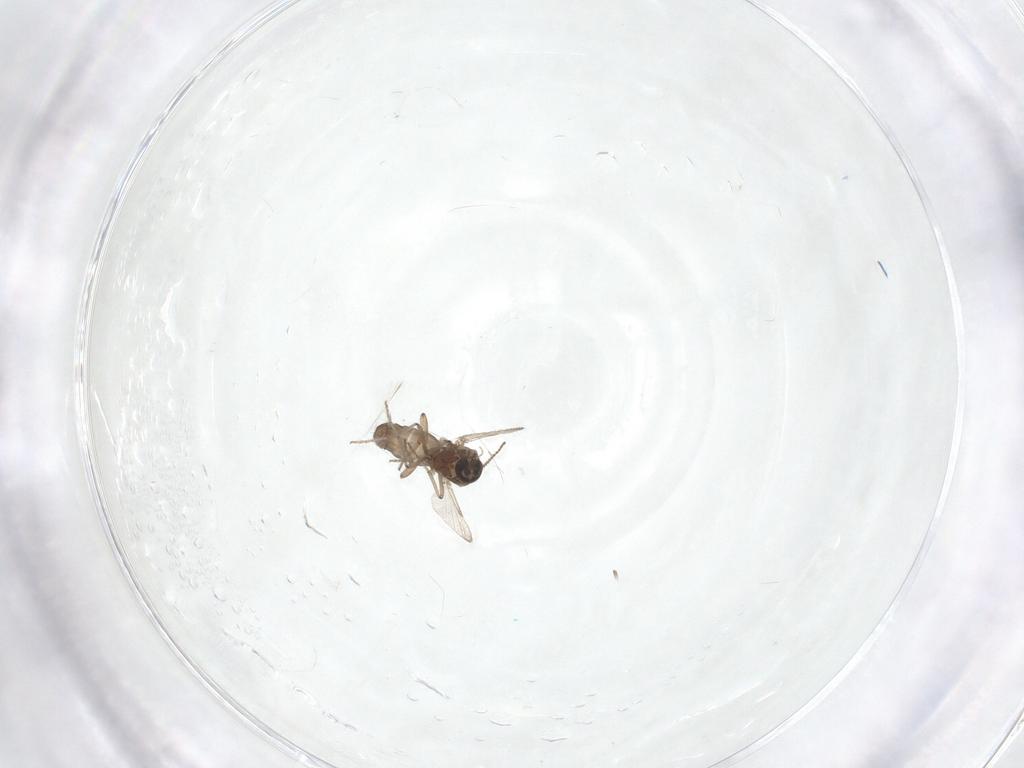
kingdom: Animalia
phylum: Arthropoda
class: Insecta
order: Diptera
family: Ceratopogonidae
